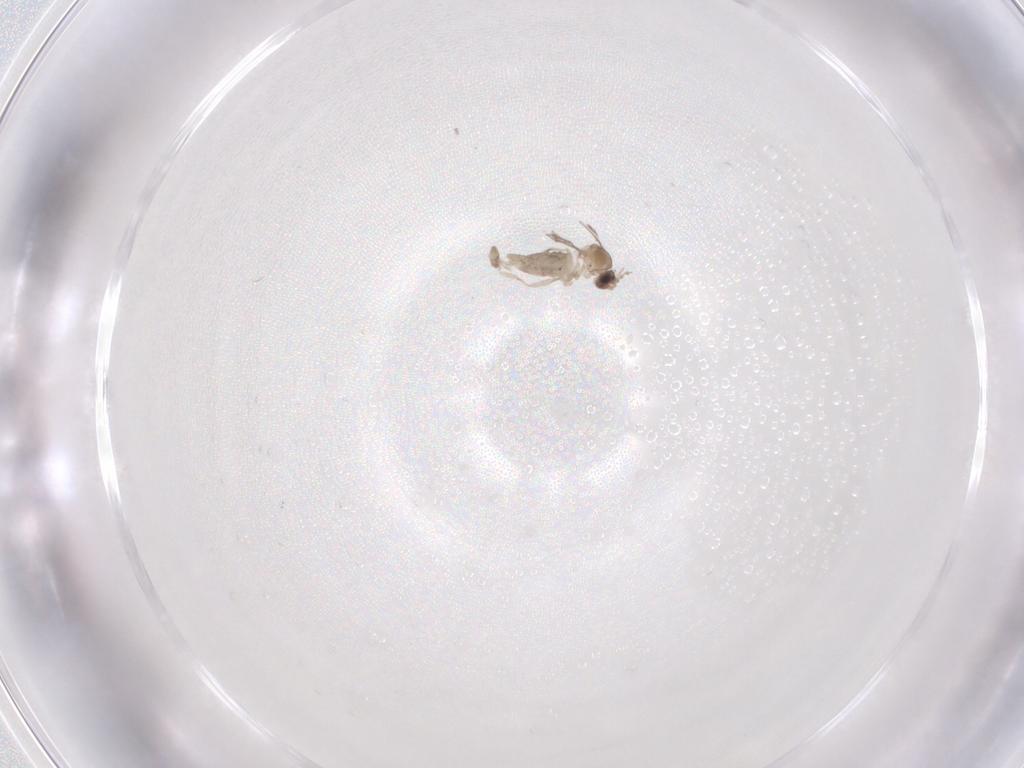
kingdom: Animalia
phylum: Arthropoda
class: Insecta
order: Diptera
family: Cecidomyiidae
